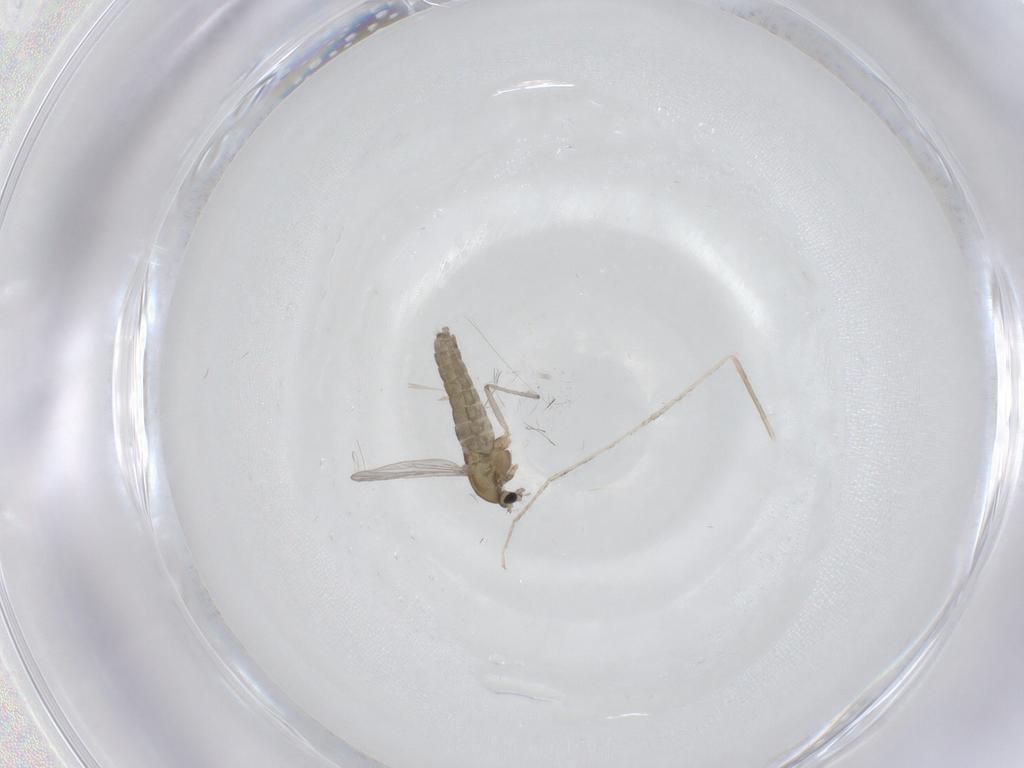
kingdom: Animalia
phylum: Arthropoda
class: Insecta
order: Diptera
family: Chironomidae
